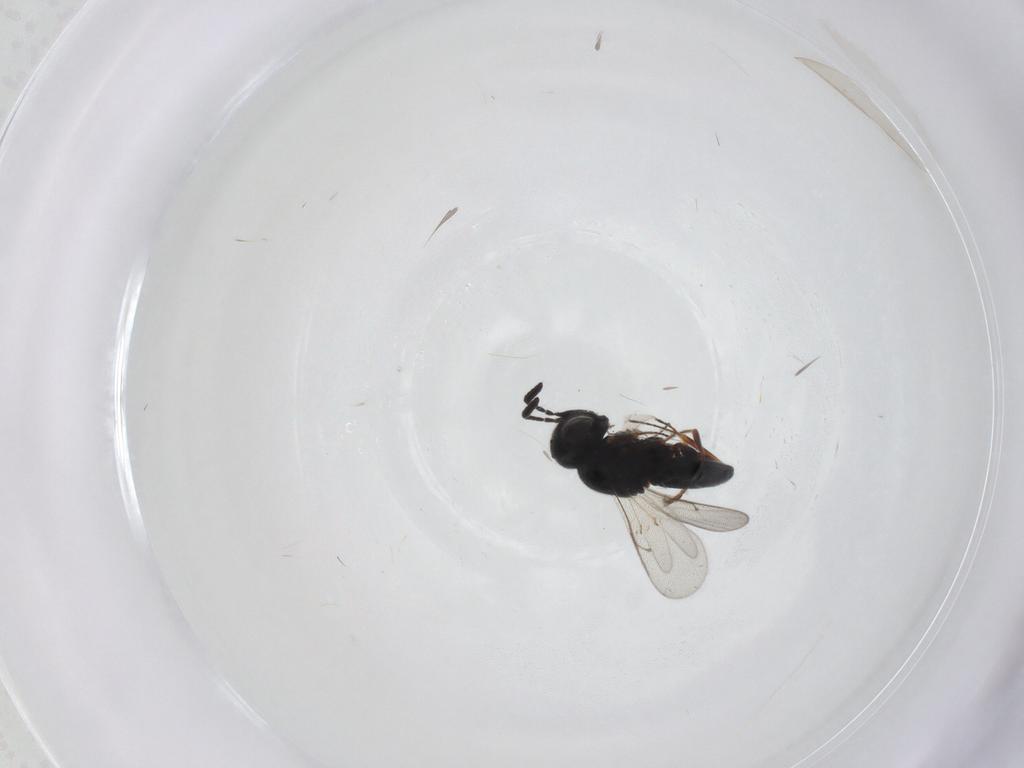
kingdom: Animalia
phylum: Arthropoda
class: Insecta
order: Hymenoptera
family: Scelionidae
